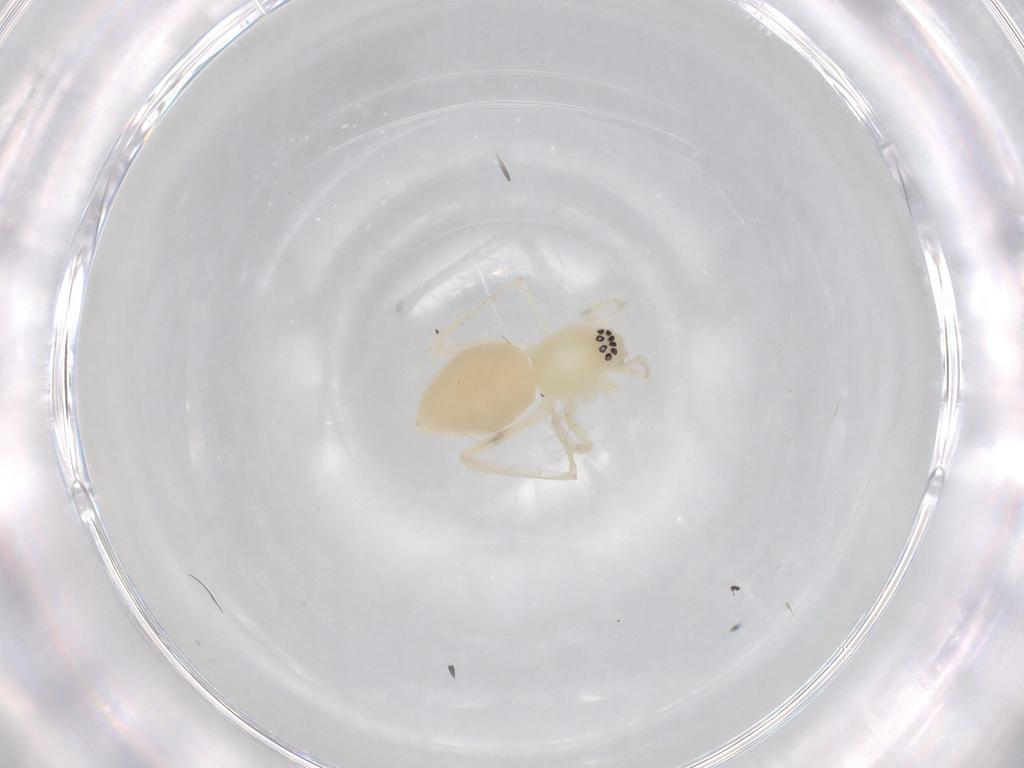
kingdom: Animalia
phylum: Arthropoda
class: Arachnida
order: Araneae
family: Anyphaenidae
